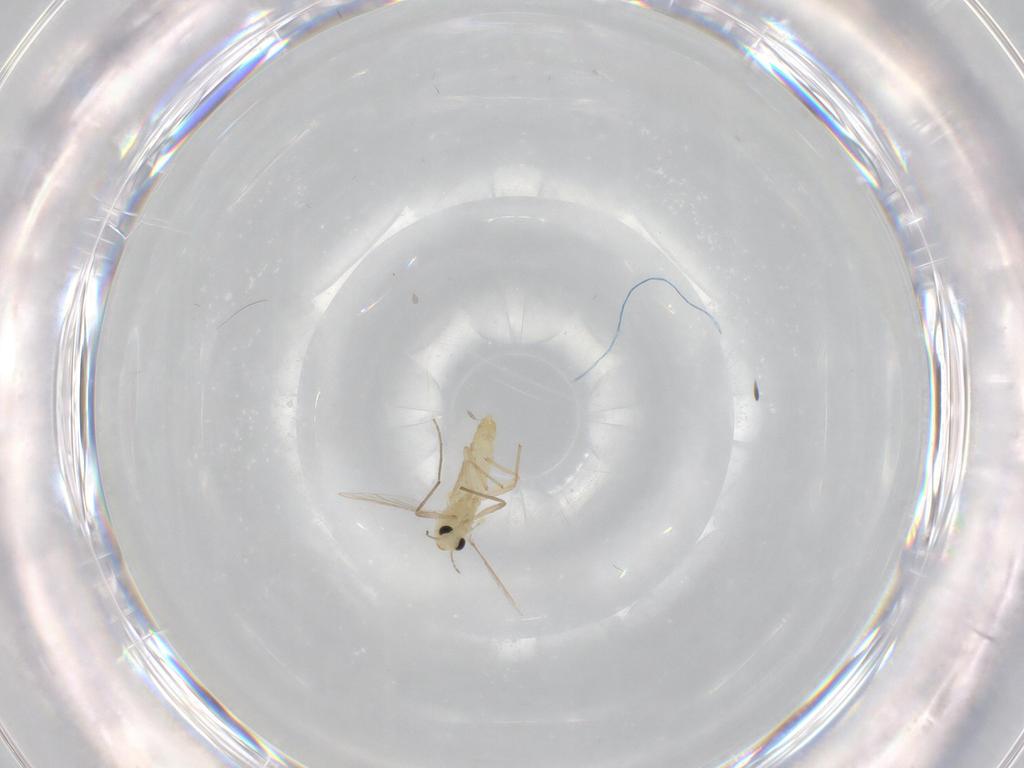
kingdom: Animalia
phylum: Arthropoda
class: Insecta
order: Diptera
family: Chironomidae
